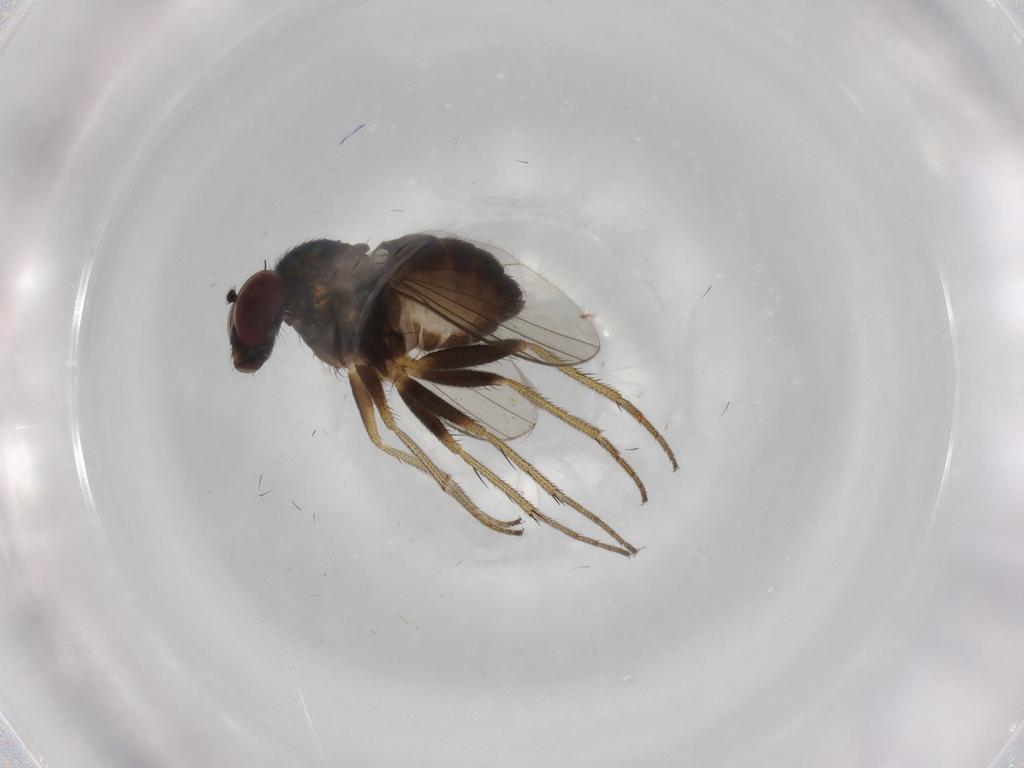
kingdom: Animalia
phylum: Arthropoda
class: Insecta
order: Diptera
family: Dolichopodidae
